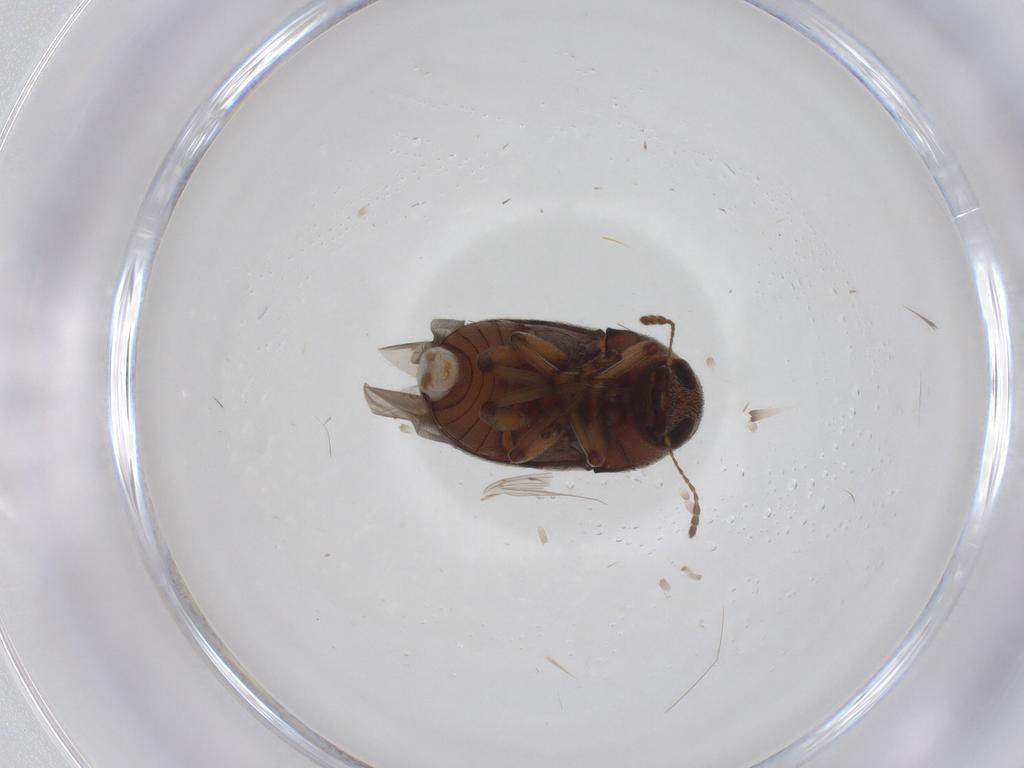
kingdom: Animalia
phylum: Arthropoda
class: Insecta
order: Coleoptera
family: Anthribidae
